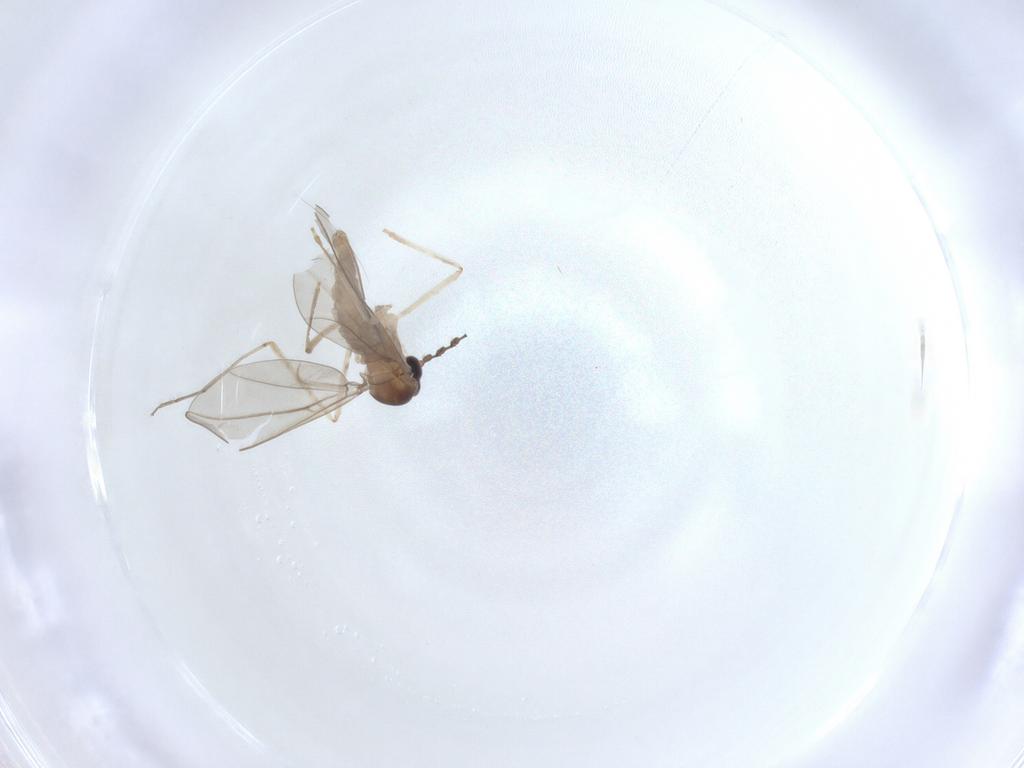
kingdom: Animalia
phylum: Arthropoda
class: Insecta
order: Diptera
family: Cecidomyiidae
